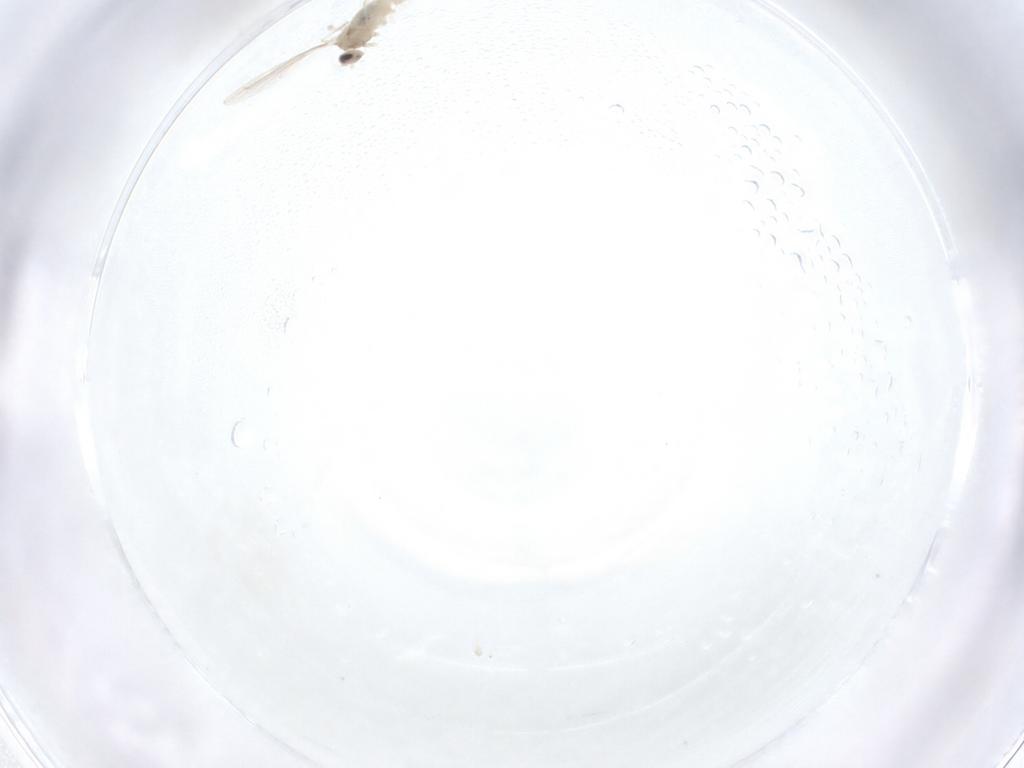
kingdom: Animalia
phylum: Arthropoda
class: Insecta
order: Diptera
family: Cecidomyiidae
